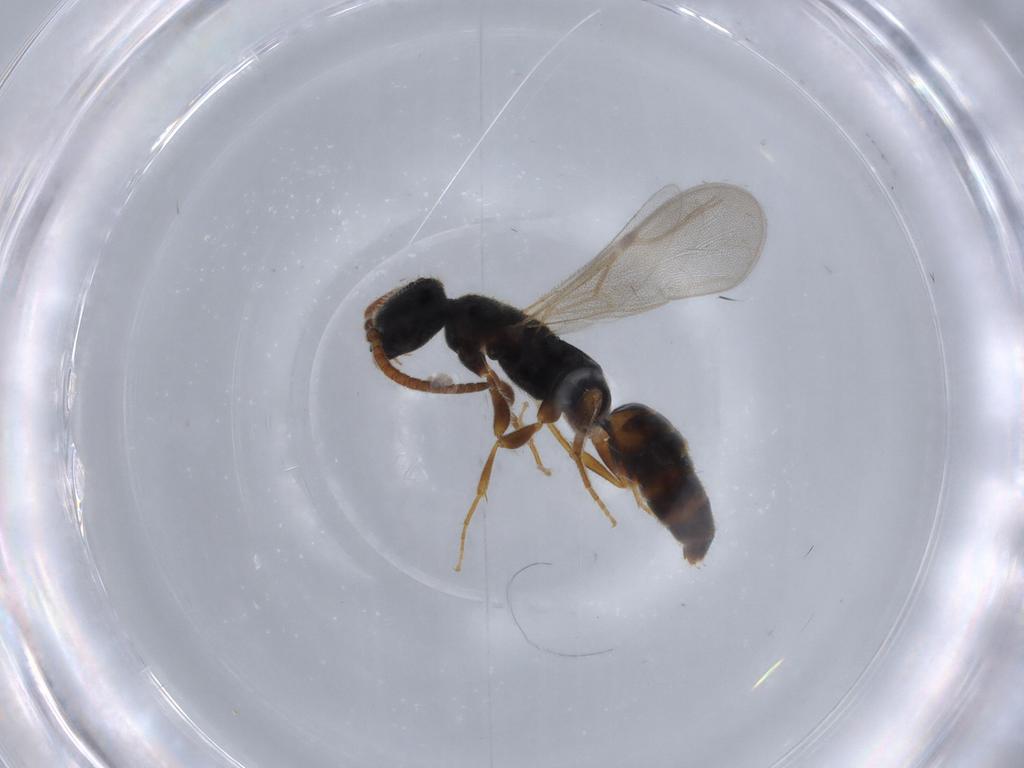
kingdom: Animalia
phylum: Arthropoda
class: Insecta
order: Hymenoptera
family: Bethylidae
